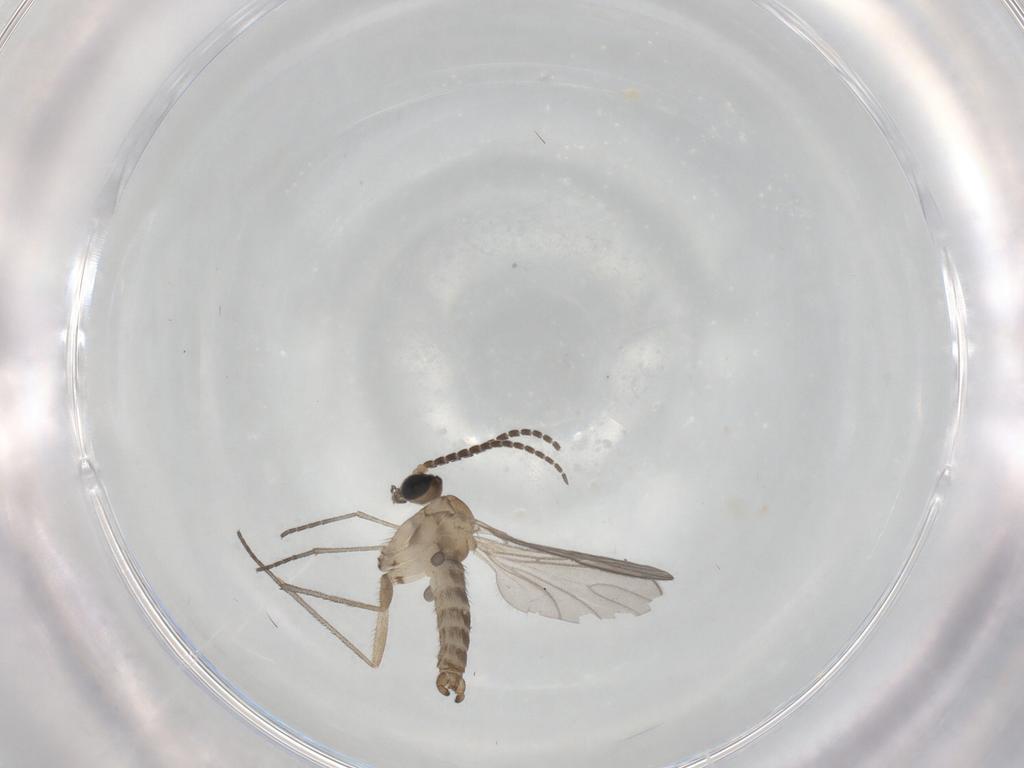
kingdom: Animalia
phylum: Arthropoda
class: Insecta
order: Diptera
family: Sciaridae
